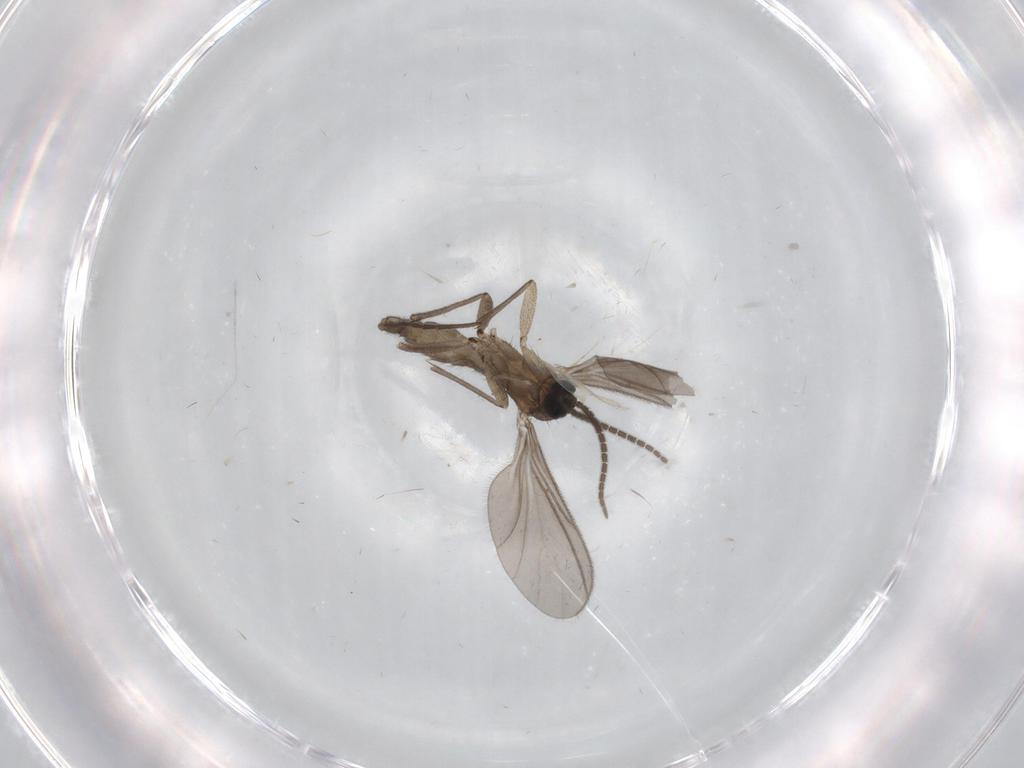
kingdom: Animalia
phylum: Arthropoda
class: Insecta
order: Diptera
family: Sciaridae
